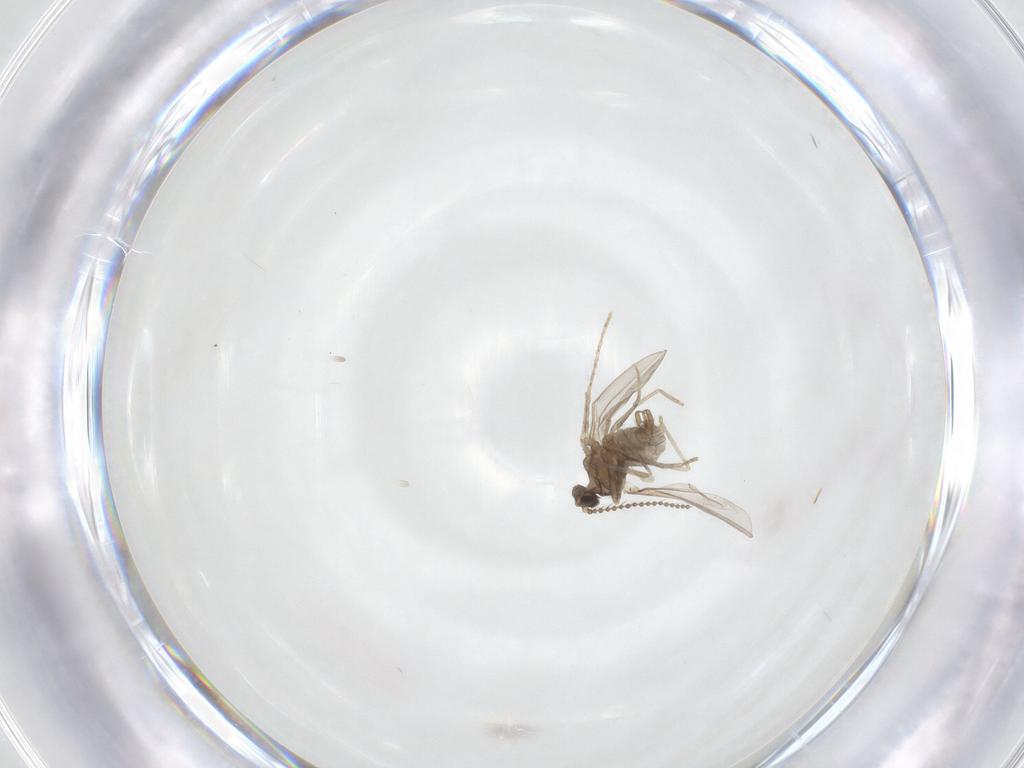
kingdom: Animalia
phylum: Arthropoda
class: Insecta
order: Diptera
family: Cecidomyiidae
